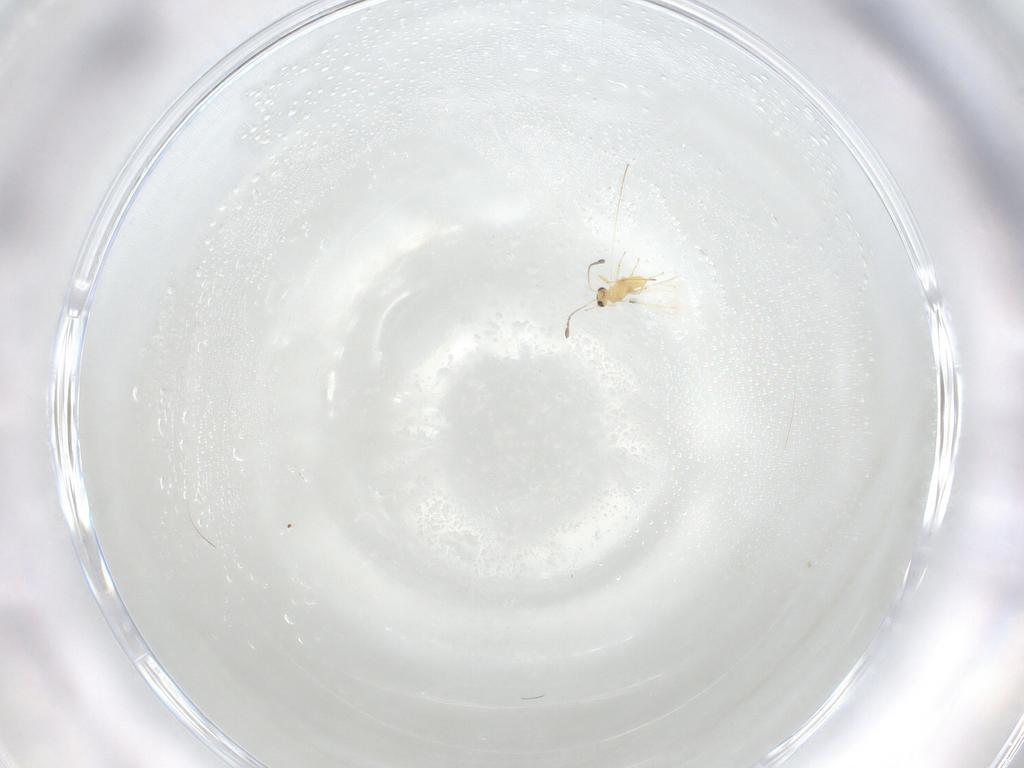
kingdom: Animalia
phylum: Arthropoda
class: Insecta
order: Hymenoptera
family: Mymaridae
